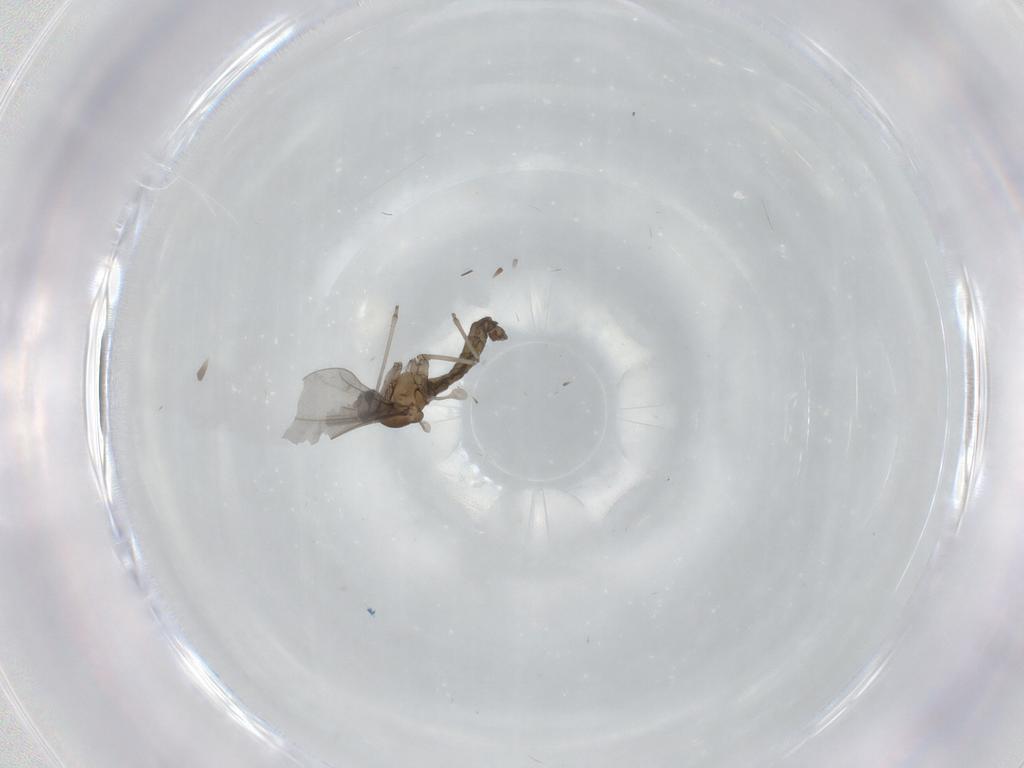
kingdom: Animalia
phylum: Arthropoda
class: Insecta
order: Diptera
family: Cecidomyiidae
